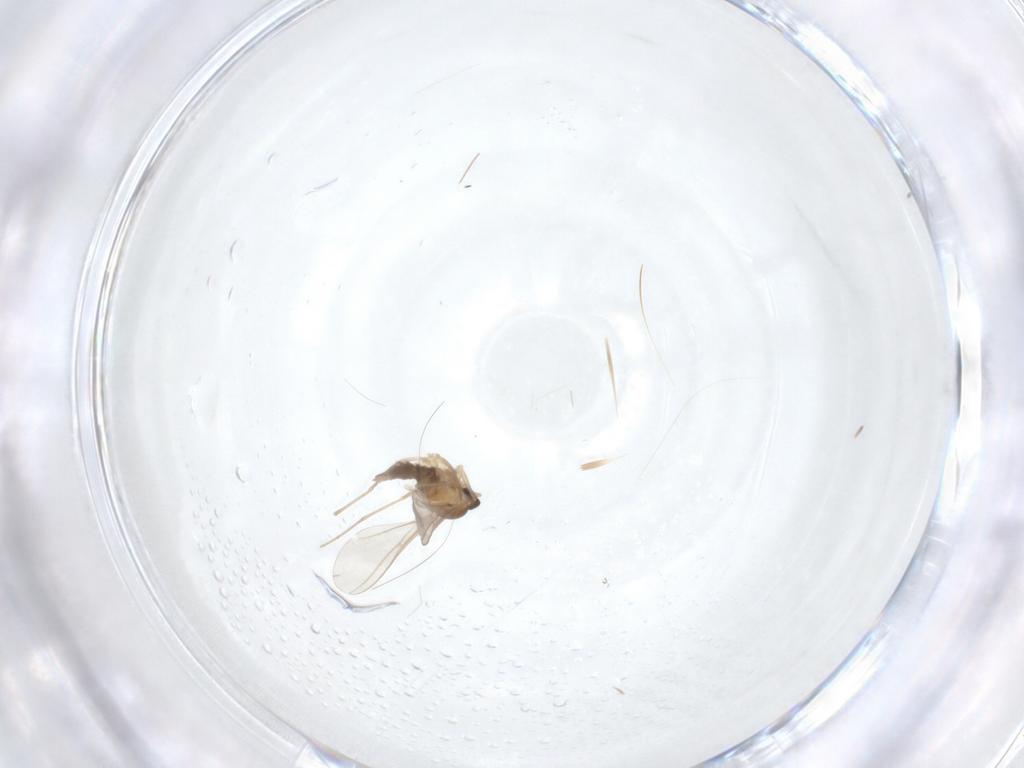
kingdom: Animalia
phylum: Arthropoda
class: Insecta
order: Diptera
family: Cecidomyiidae
